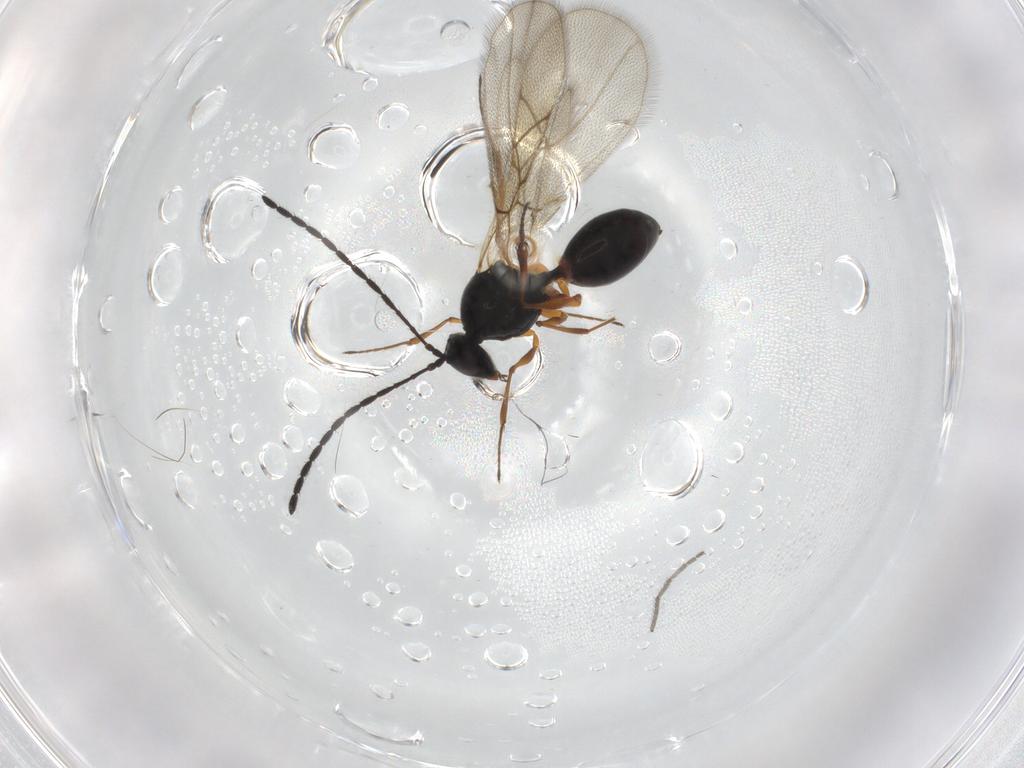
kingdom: Animalia
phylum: Arthropoda
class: Insecta
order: Hymenoptera
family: Figitidae
